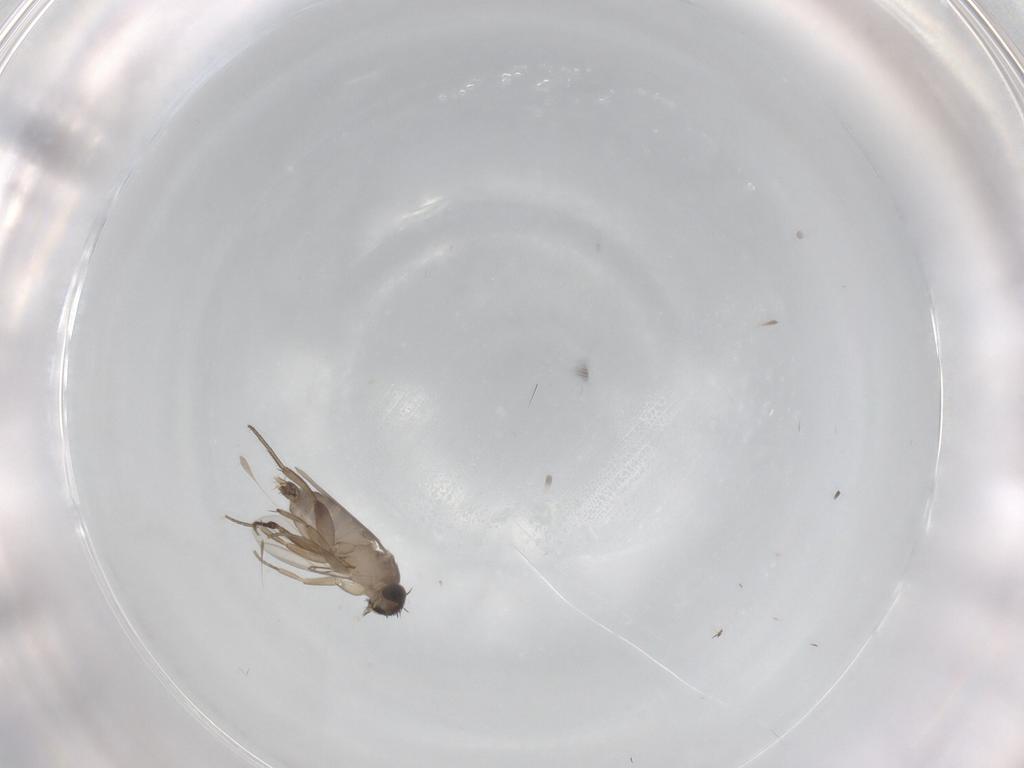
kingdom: Animalia
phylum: Arthropoda
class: Insecta
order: Diptera
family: Phoridae
